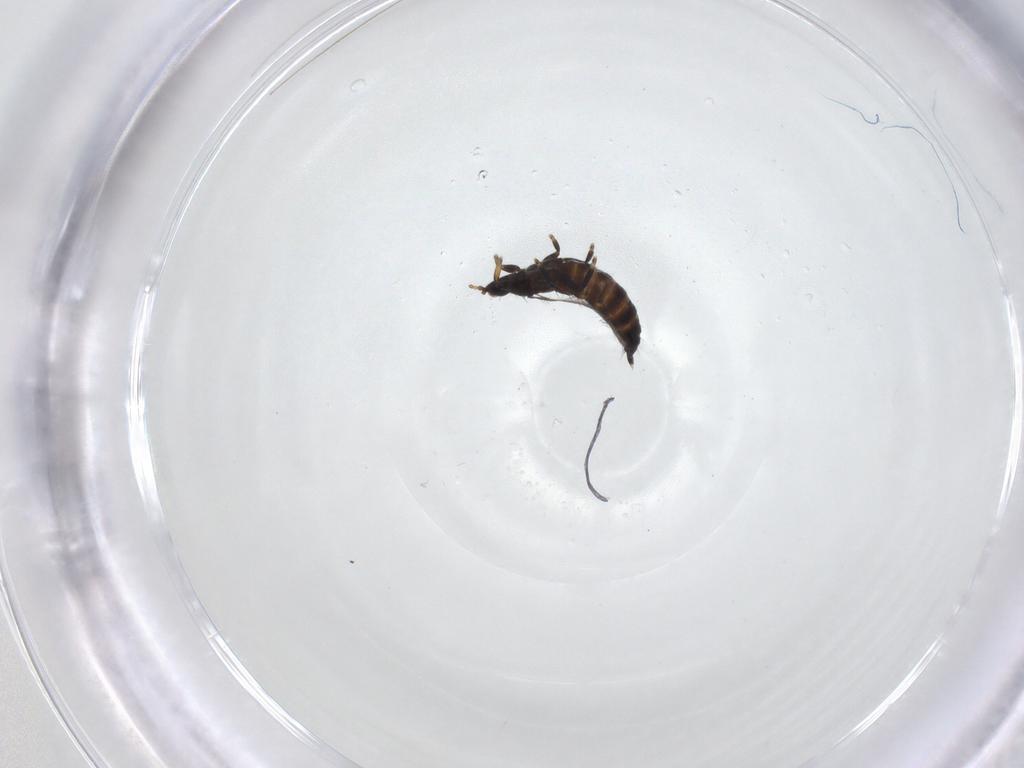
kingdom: Animalia
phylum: Arthropoda
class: Insecta
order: Thysanoptera
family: Phlaeothripidae
